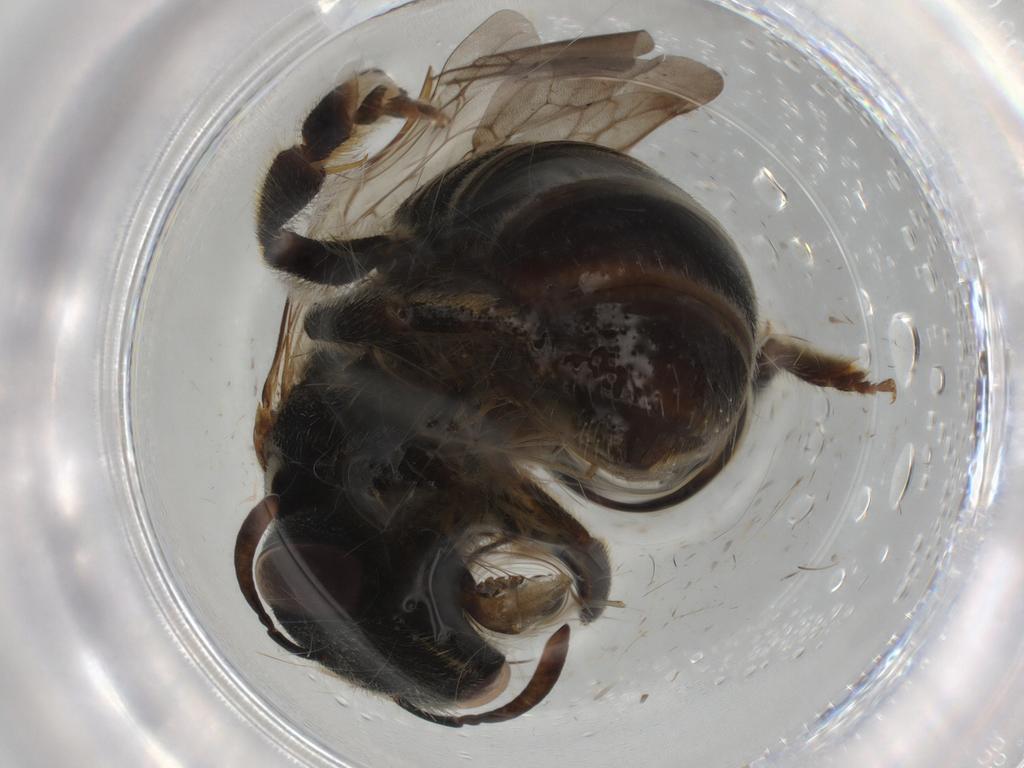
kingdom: Animalia
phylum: Arthropoda
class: Insecta
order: Hymenoptera
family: Halictidae
